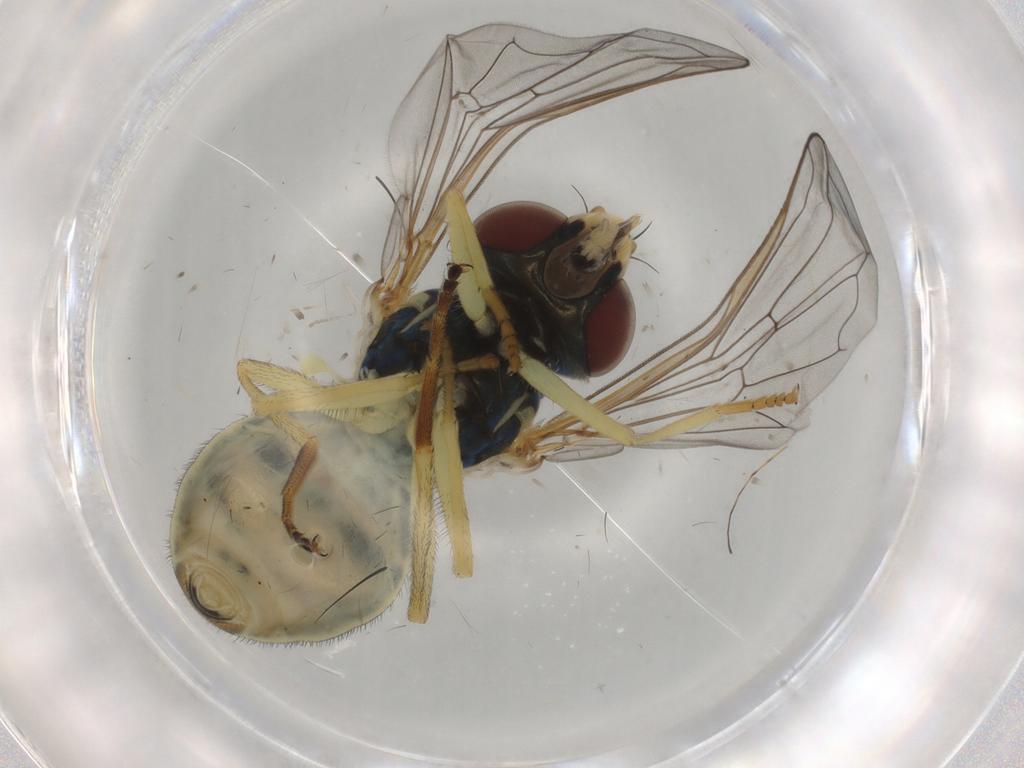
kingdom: Animalia
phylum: Arthropoda
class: Insecta
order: Diptera
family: Syrphidae
